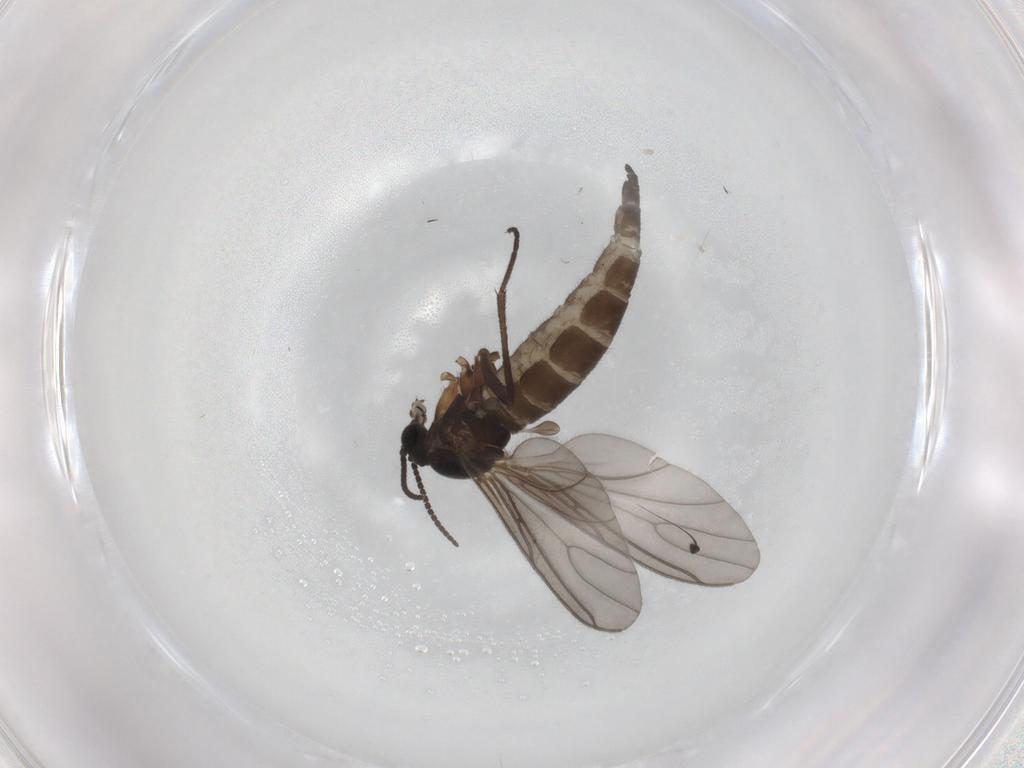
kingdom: Animalia
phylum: Arthropoda
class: Insecta
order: Diptera
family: Sciaridae
